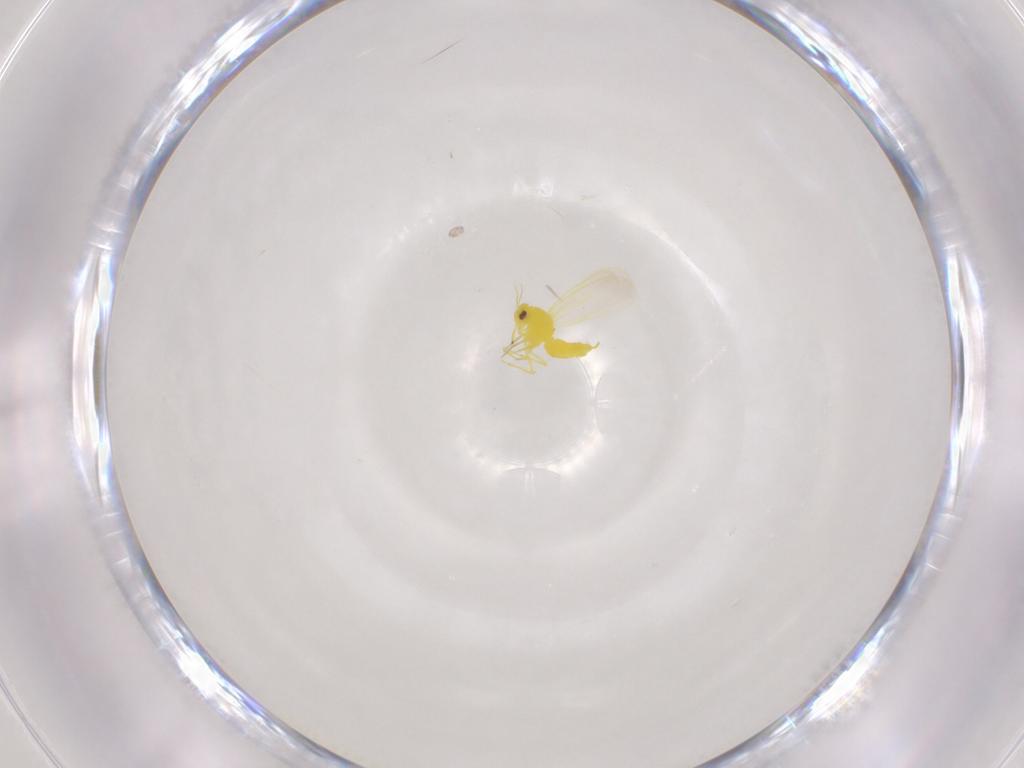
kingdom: Animalia
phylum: Arthropoda
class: Insecta
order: Hemiptera
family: Aleyrodidae
